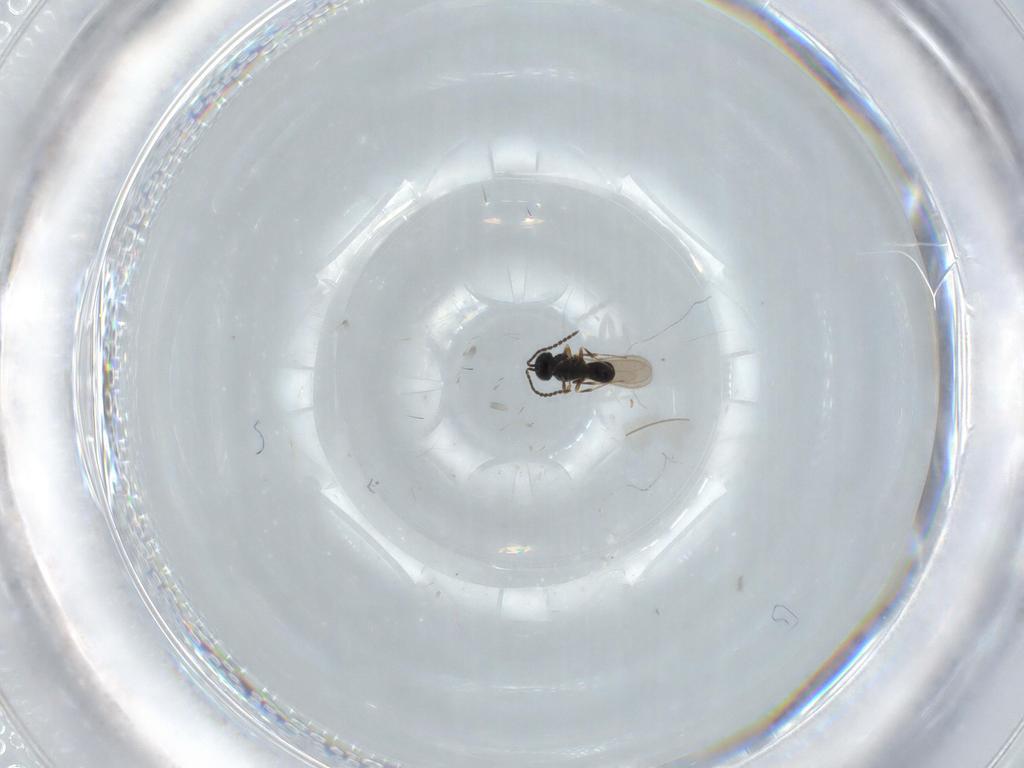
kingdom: Animalia
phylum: Arthropoda
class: Insecta
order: Hymenoptera
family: Scelionidae
